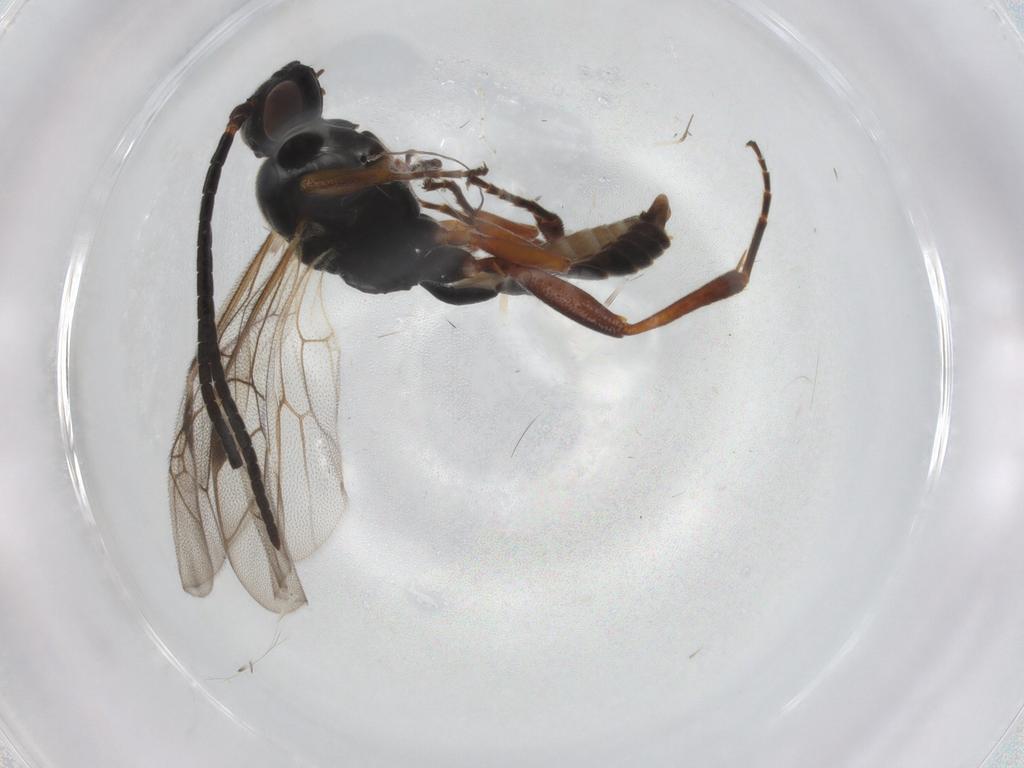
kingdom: Animalia
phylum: Arthropoda
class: Insecta
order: Hymenoptera
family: Ichneumonidae
